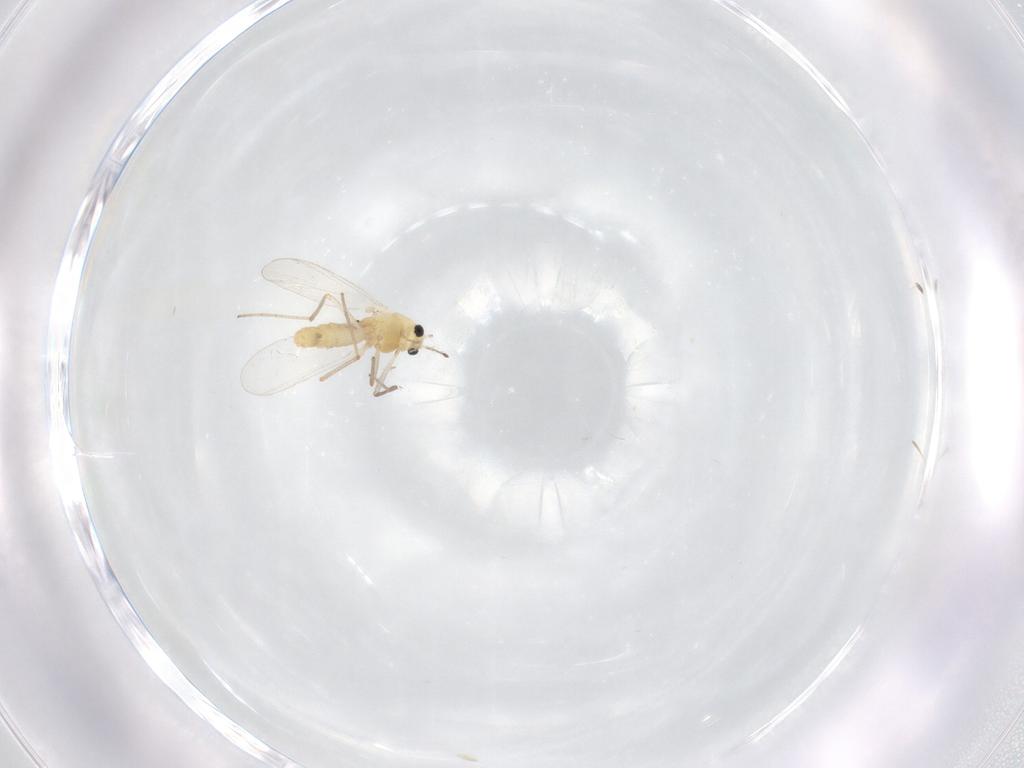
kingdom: Animalia
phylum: Arthropoda
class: Insecta
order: Diptera
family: Chironomidae
